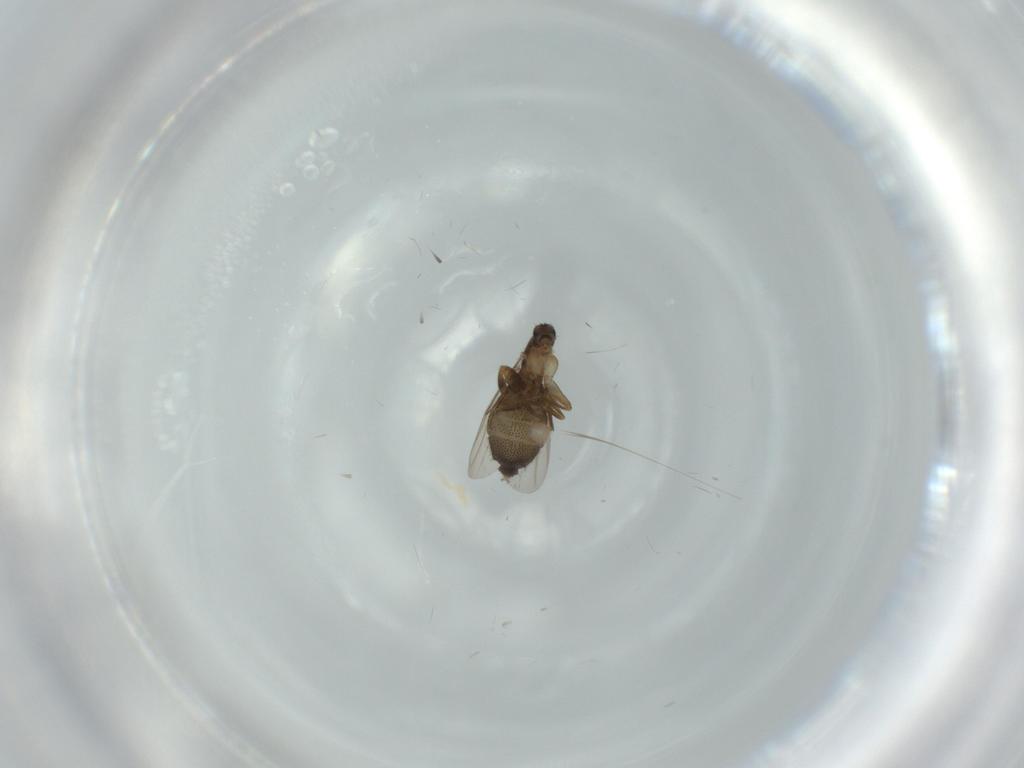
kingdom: Animalia
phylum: Arthropoda
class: Insecta
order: Diptera
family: Phoridae
